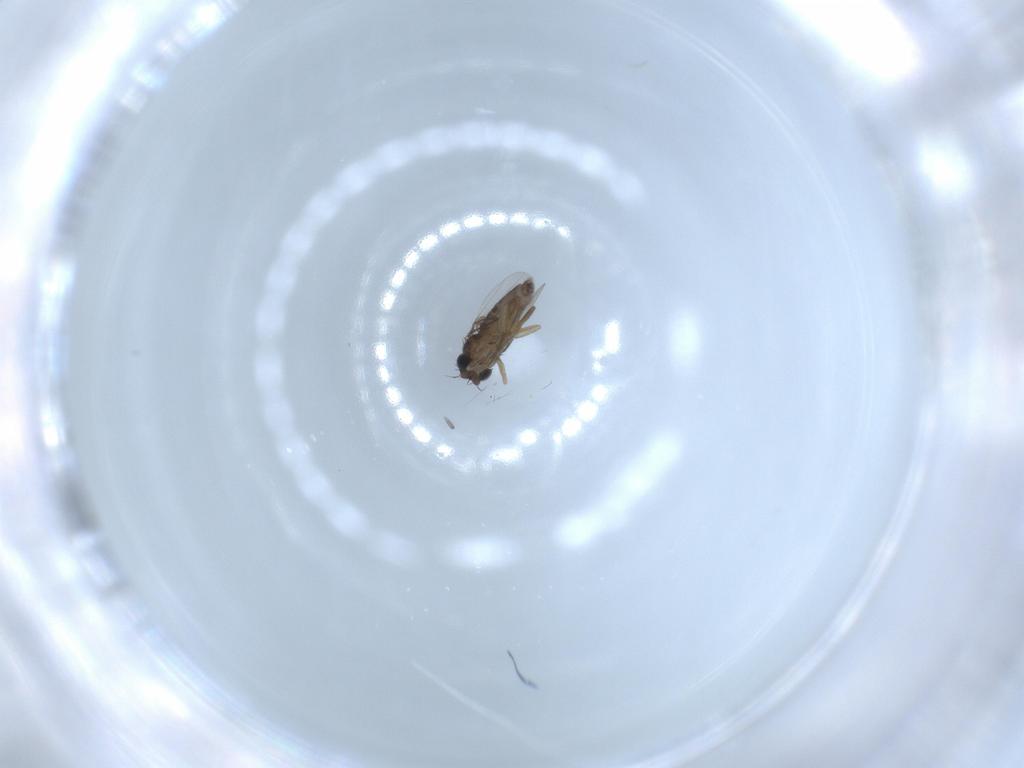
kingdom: Animalia
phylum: Arthropoda
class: Insecta
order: Diptera
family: Phoridae
